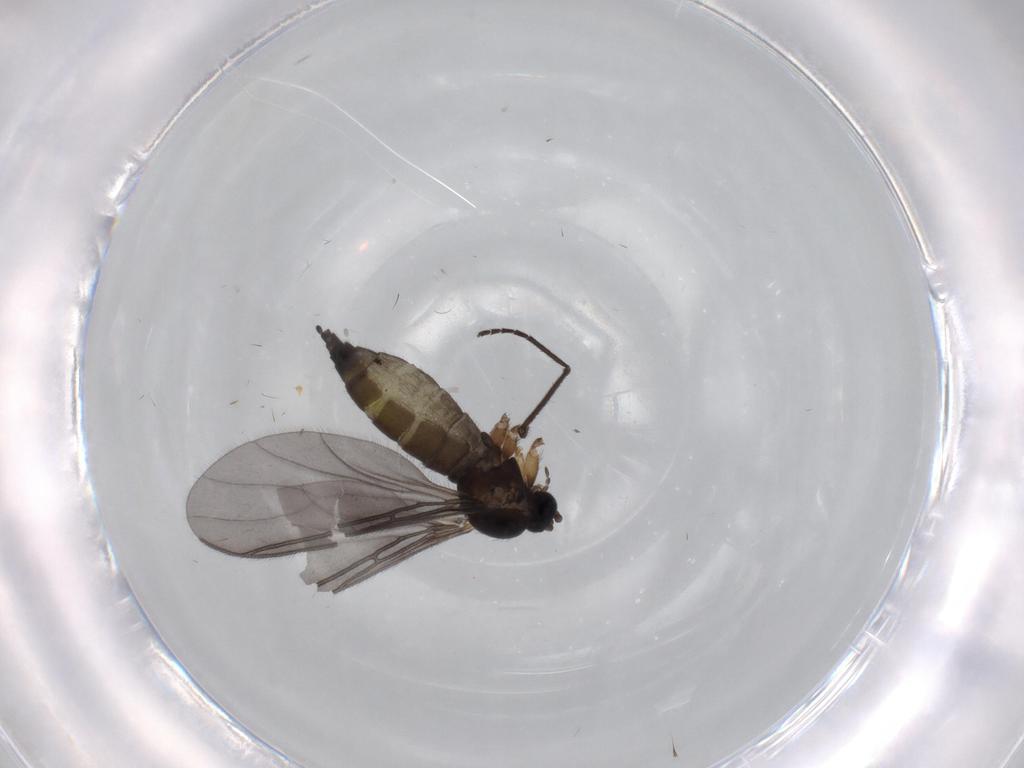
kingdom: Animalia
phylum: Arthropoda
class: Insecta
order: Diptera
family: Sciaridae
